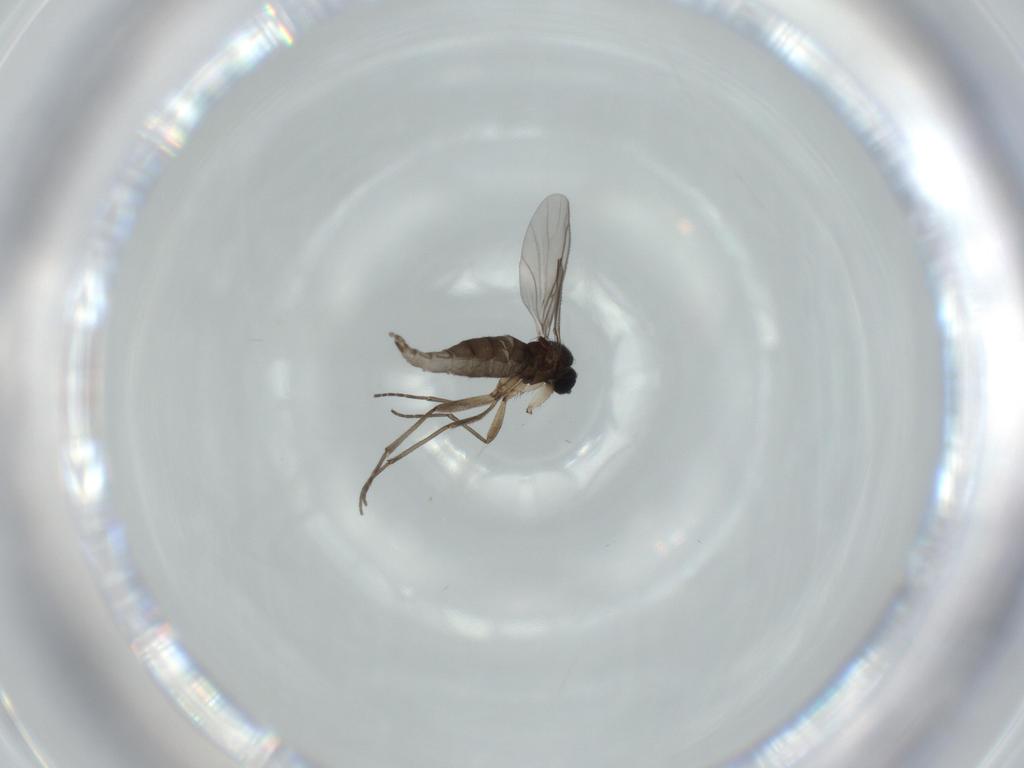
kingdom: Animalia
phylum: Arthropoda
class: Insecta
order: Diptera
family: Sciaridae
